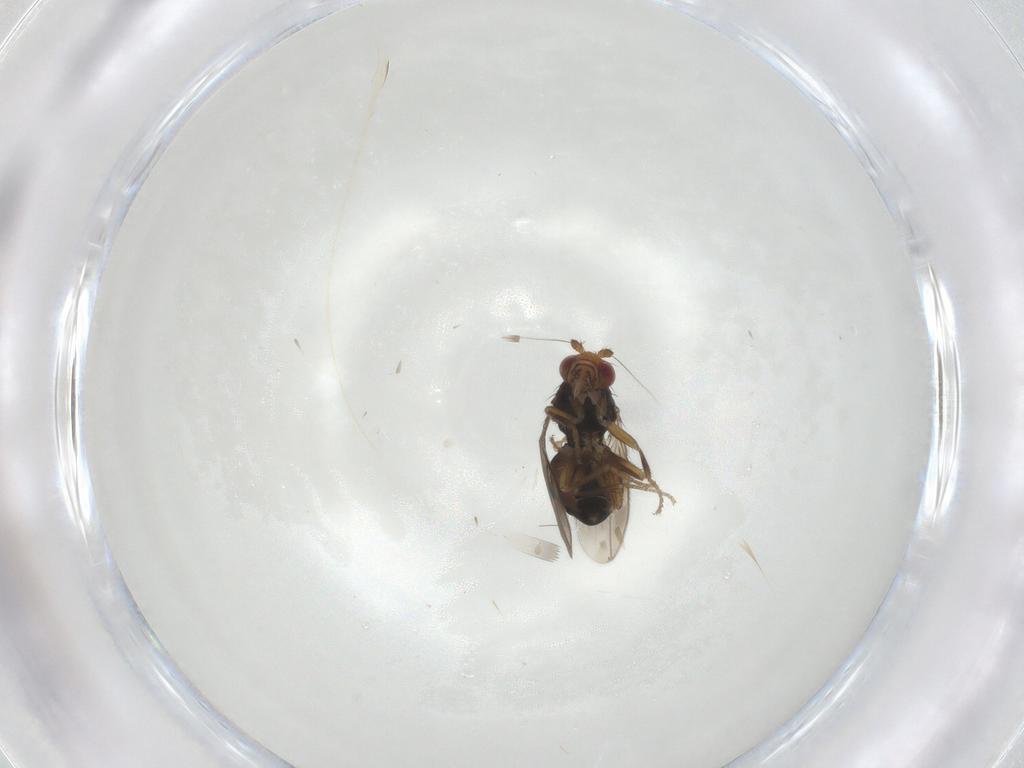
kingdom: Animalia
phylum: Arthropoda
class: Insecta
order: Diptera
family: Sphaeroceridae
